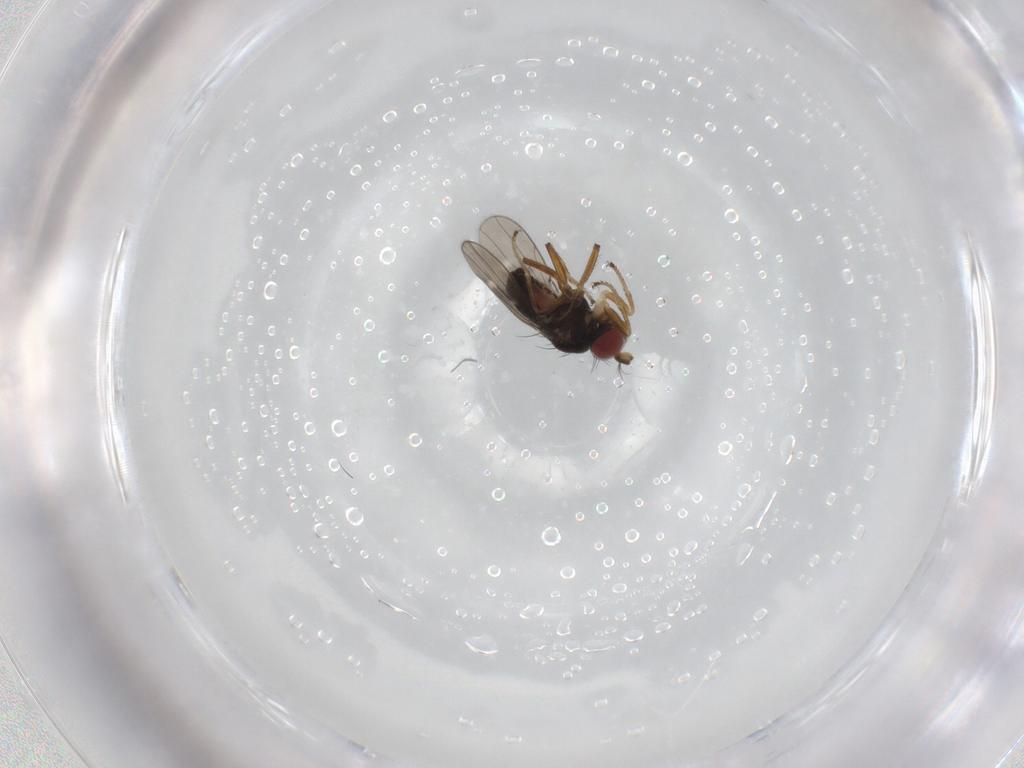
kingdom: Animalia
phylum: Arthropoda
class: Insecta
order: Diptera
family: Ephydridae
